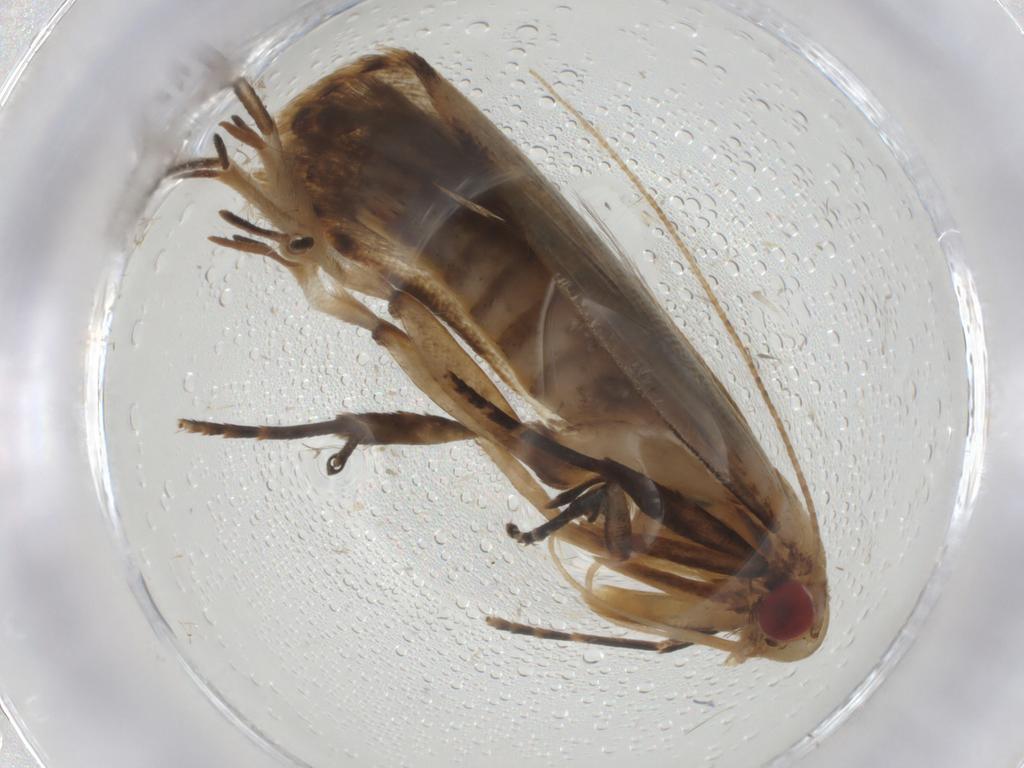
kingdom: Animalia
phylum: Arthropoda
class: Insecta
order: Lepidoptera
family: Gelechiidae
